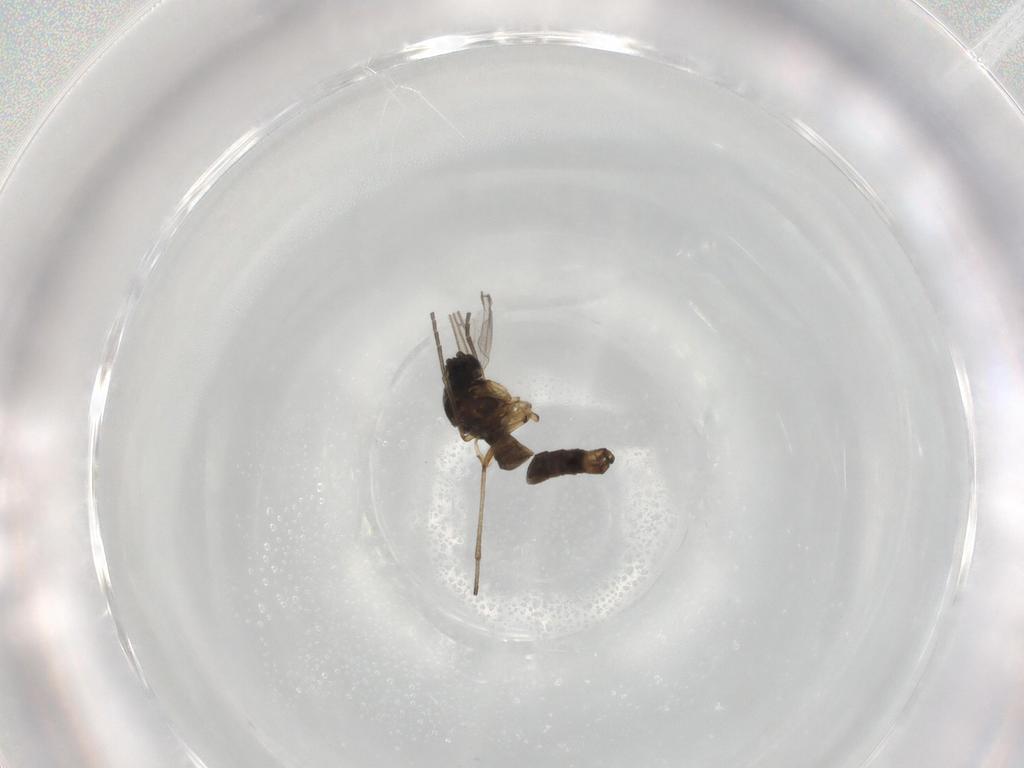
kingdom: Animalia
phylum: Arthropoda
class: Insecta
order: Diptera
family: Sciaridae
